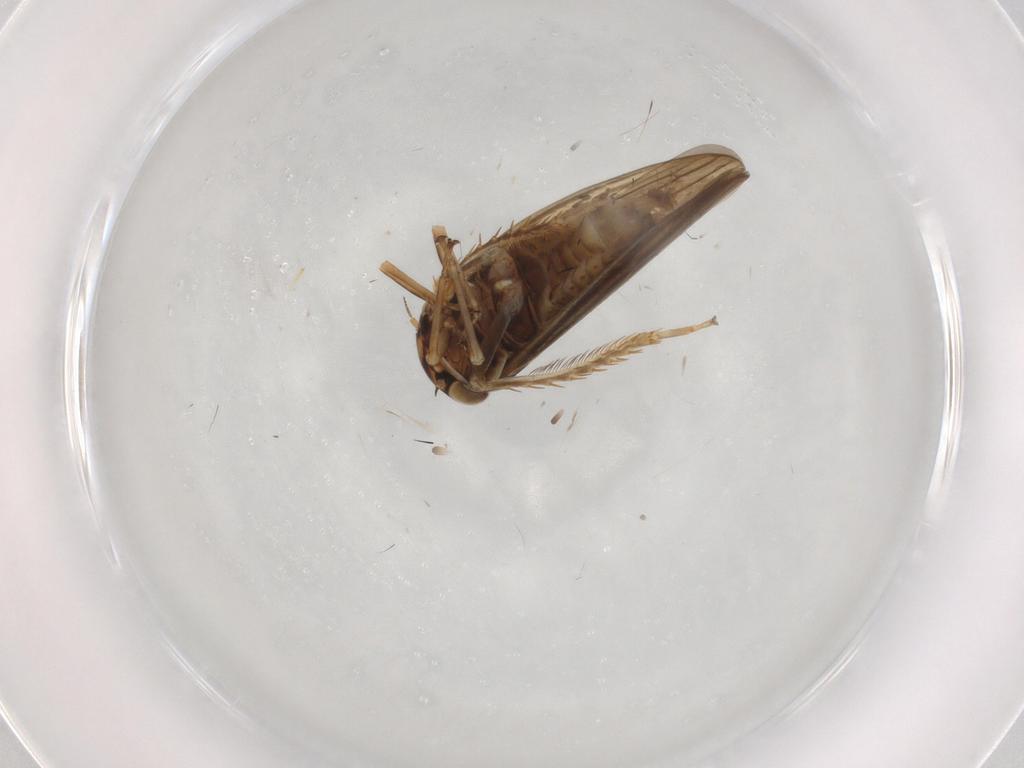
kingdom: Animalia
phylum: Arthropoda
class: Insecta
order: Hemiptera
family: Cicadellidae
